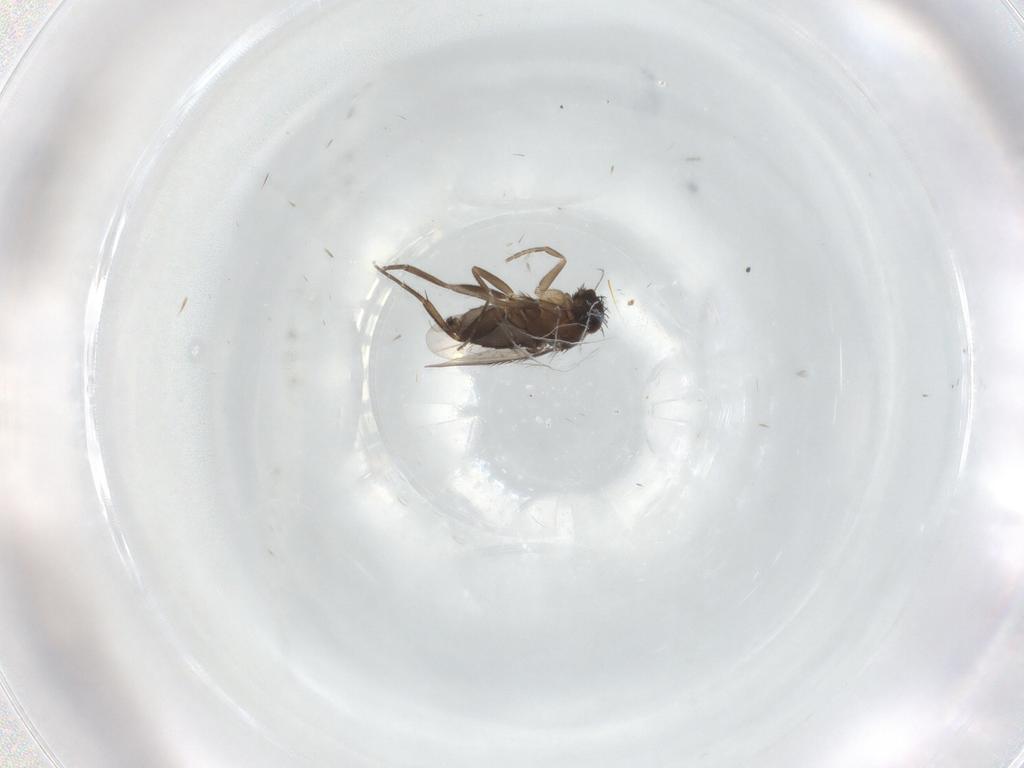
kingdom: Animalia
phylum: Arthropoda
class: Insecta
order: Diptera
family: Phoridae
